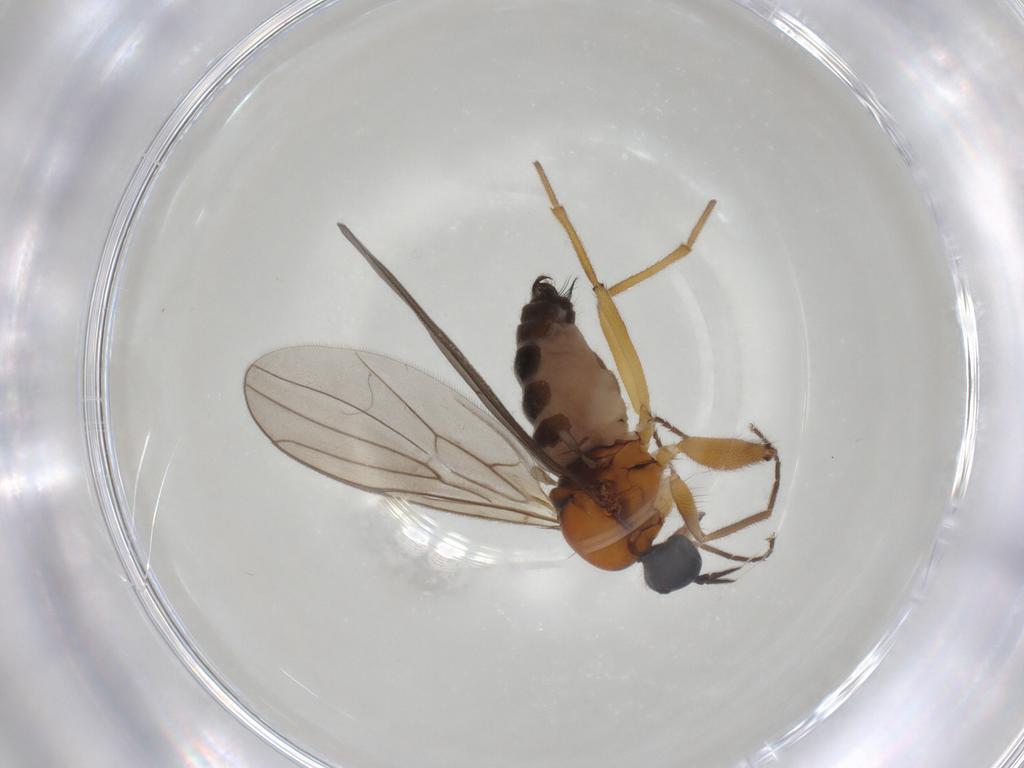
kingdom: Animalia
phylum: Arthropoda
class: Insecta
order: Diptera
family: Hybotidae
